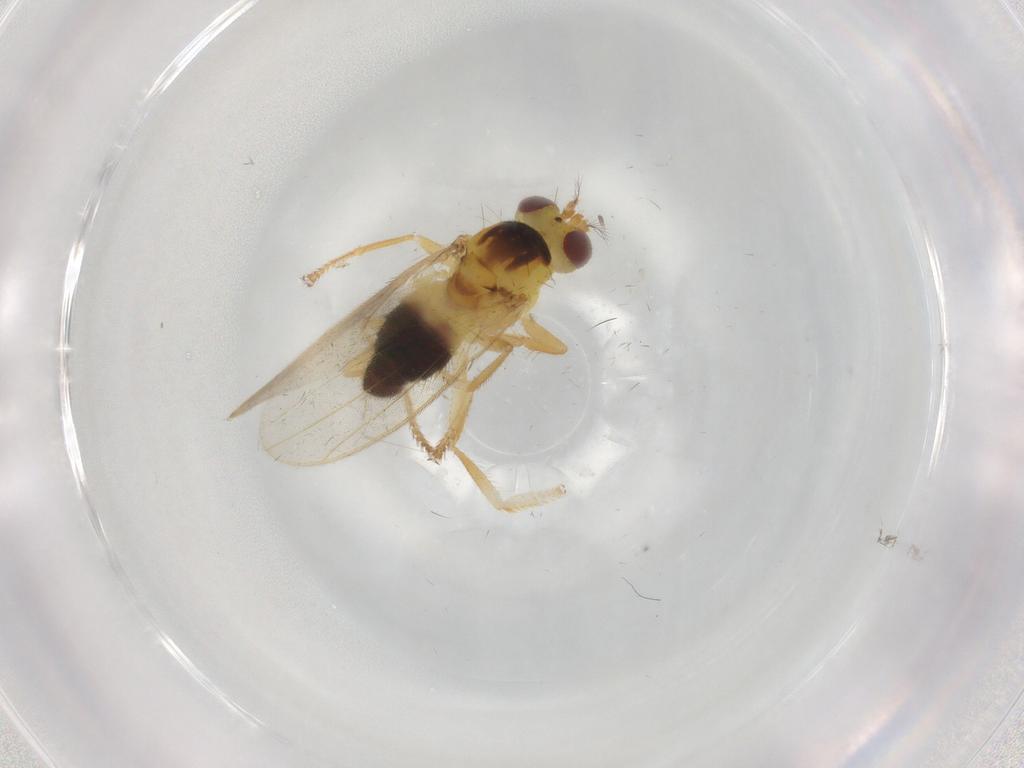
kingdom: Animalia
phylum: Arthropoda
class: Insecta
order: Diptera
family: Periscelididae
